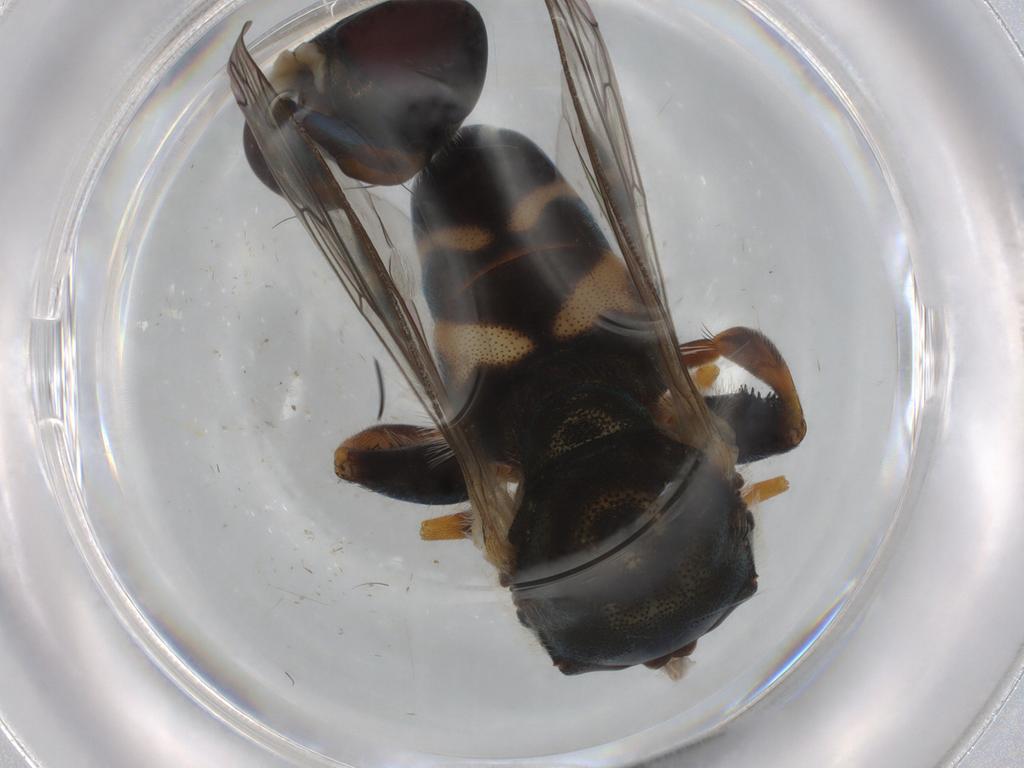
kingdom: Animalia
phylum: Arthropoda
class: Insecta
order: Diptera
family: Glossinidae
